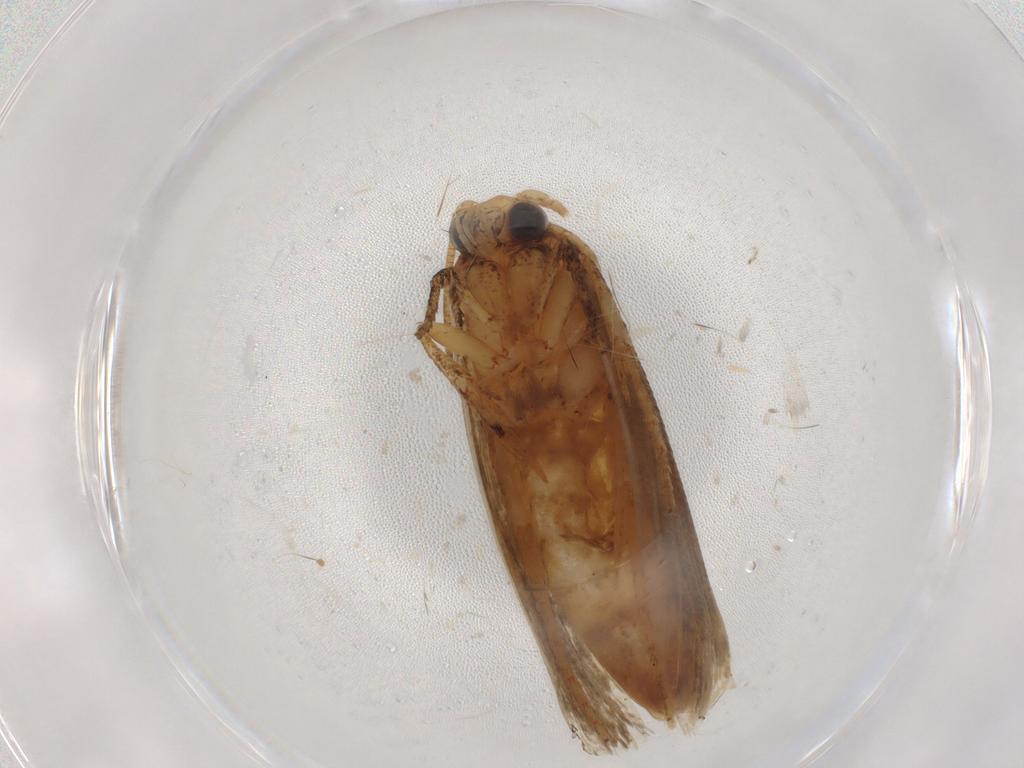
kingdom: Animalia
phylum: Arthropoda
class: Insecta
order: Lepidoptera
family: Tineidae
